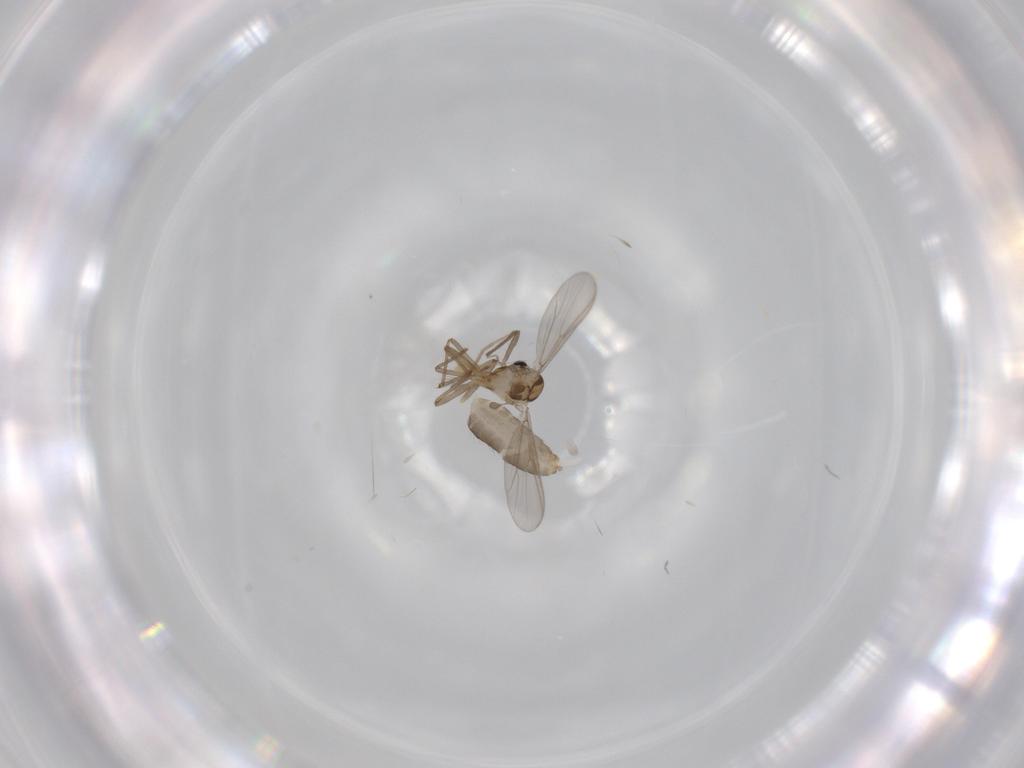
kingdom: Animalia
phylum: Arthropoda
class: Insecta
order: Diptera
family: Chironomidae
